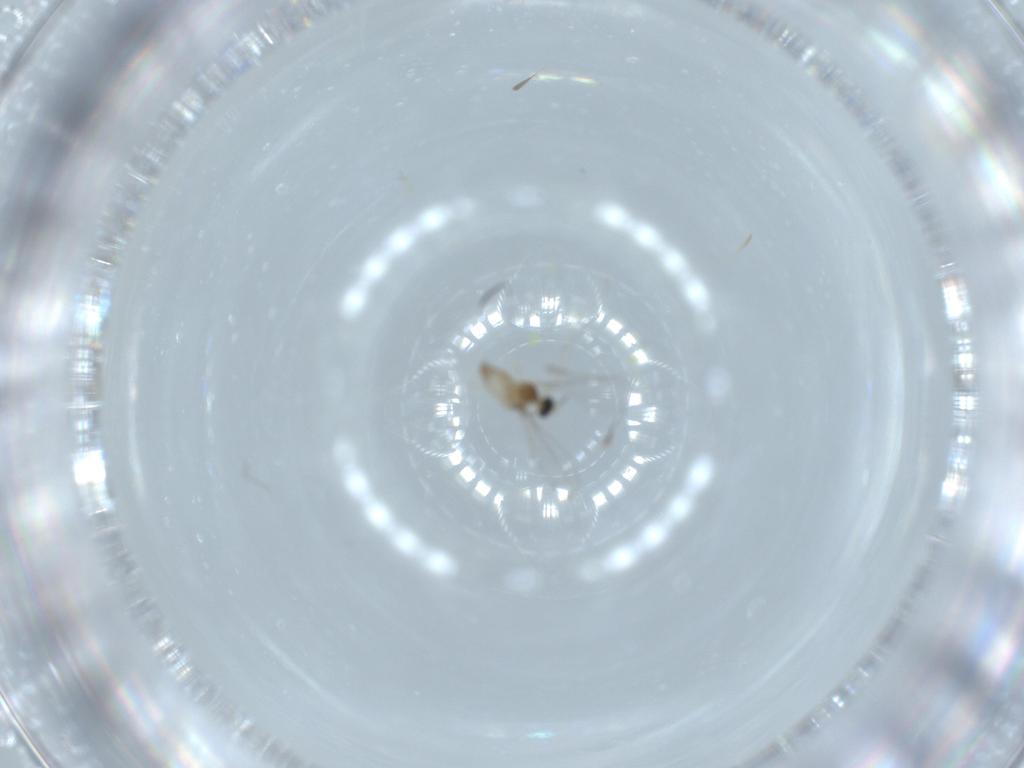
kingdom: Animalia
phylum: Arthropoda
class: Insecta
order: Diptera
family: Cecidomyiidae
